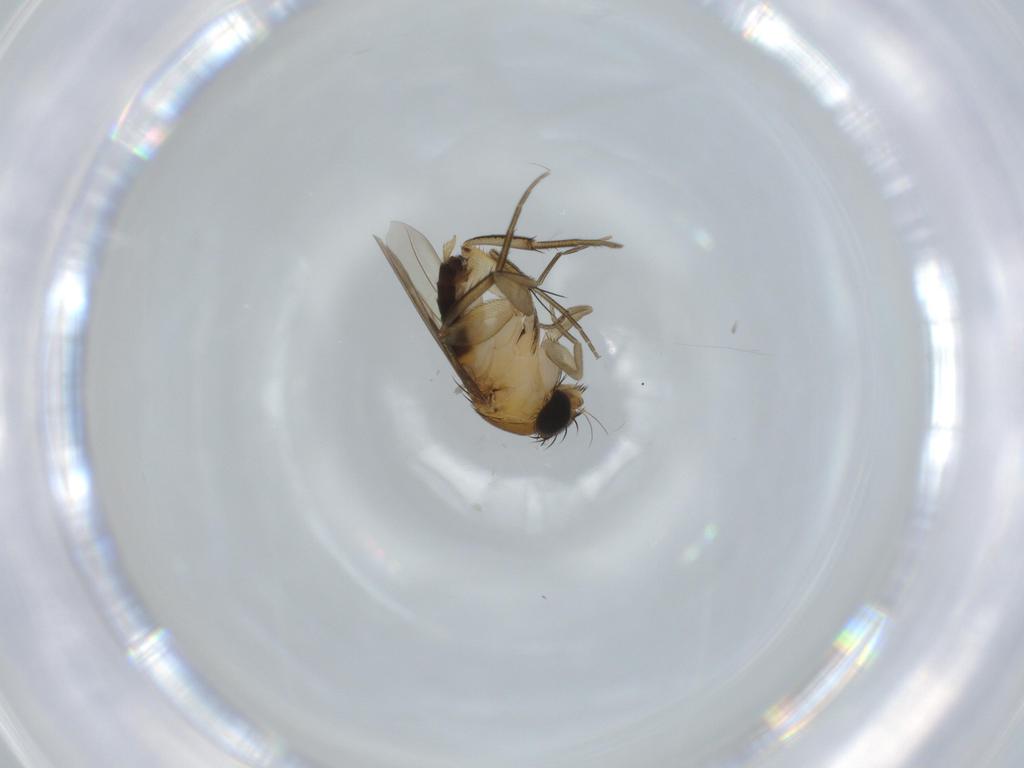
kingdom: Animalia
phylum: Arthropoda
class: Insecta
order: Diptera
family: Phoridae
